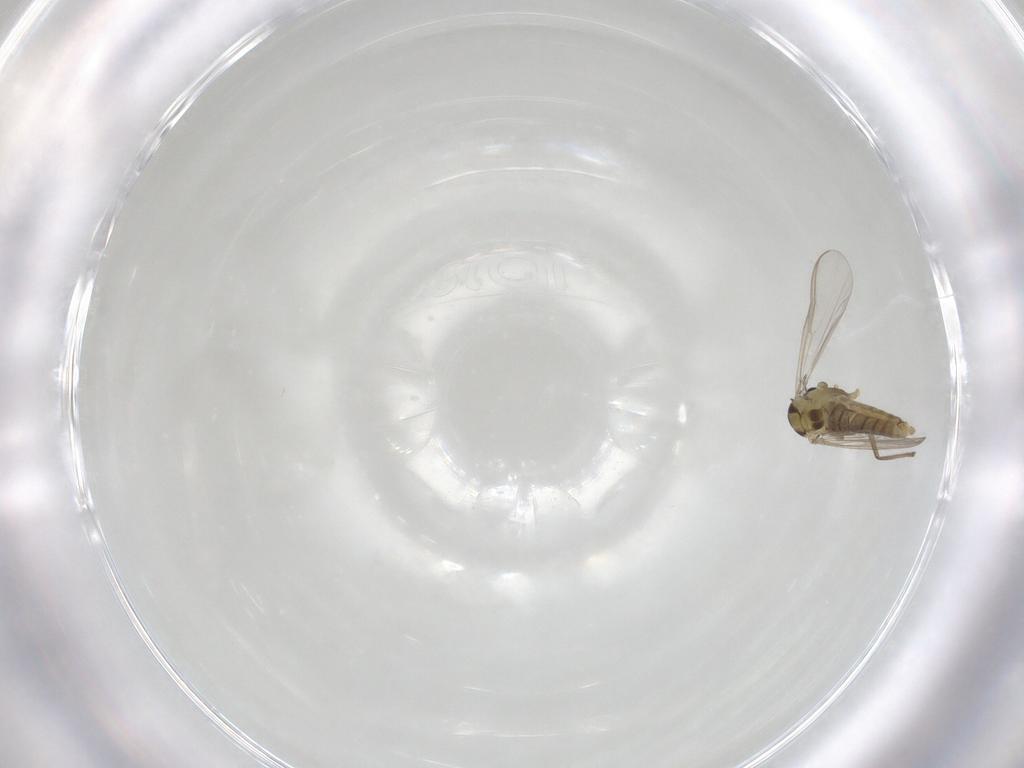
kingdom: Animalia
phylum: Arthropoda
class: Insecta
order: Diptera
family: Chironomidae
